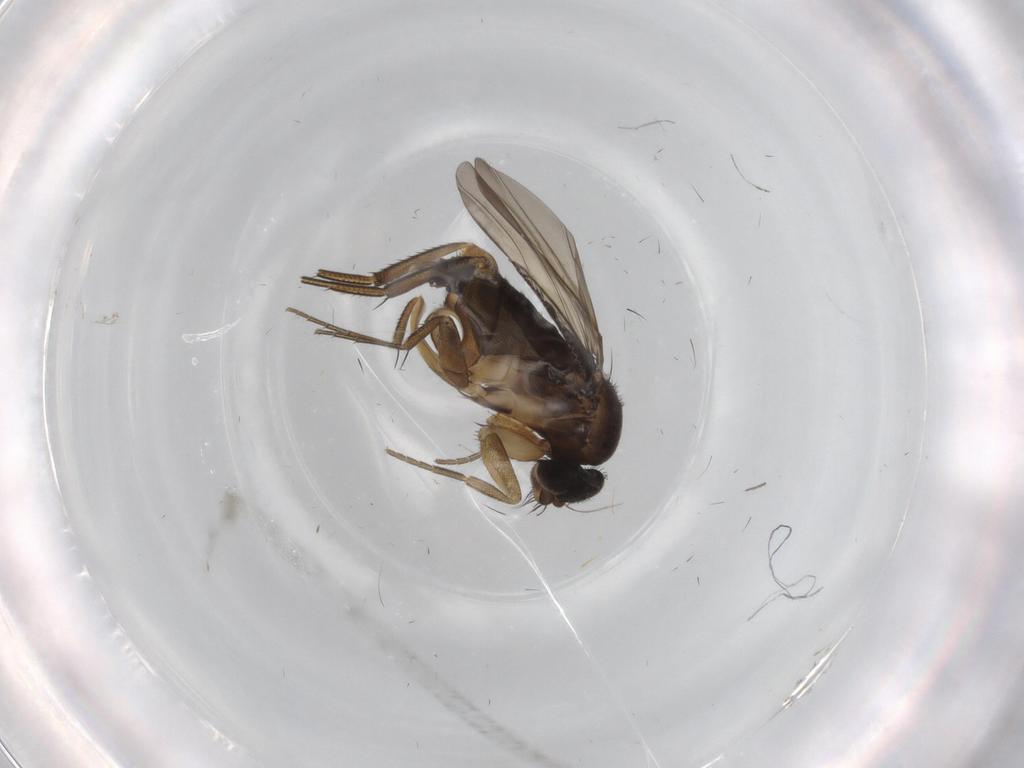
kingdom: Animalia
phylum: Arthropoda
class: Insecta
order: Diptera
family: Phoridae
